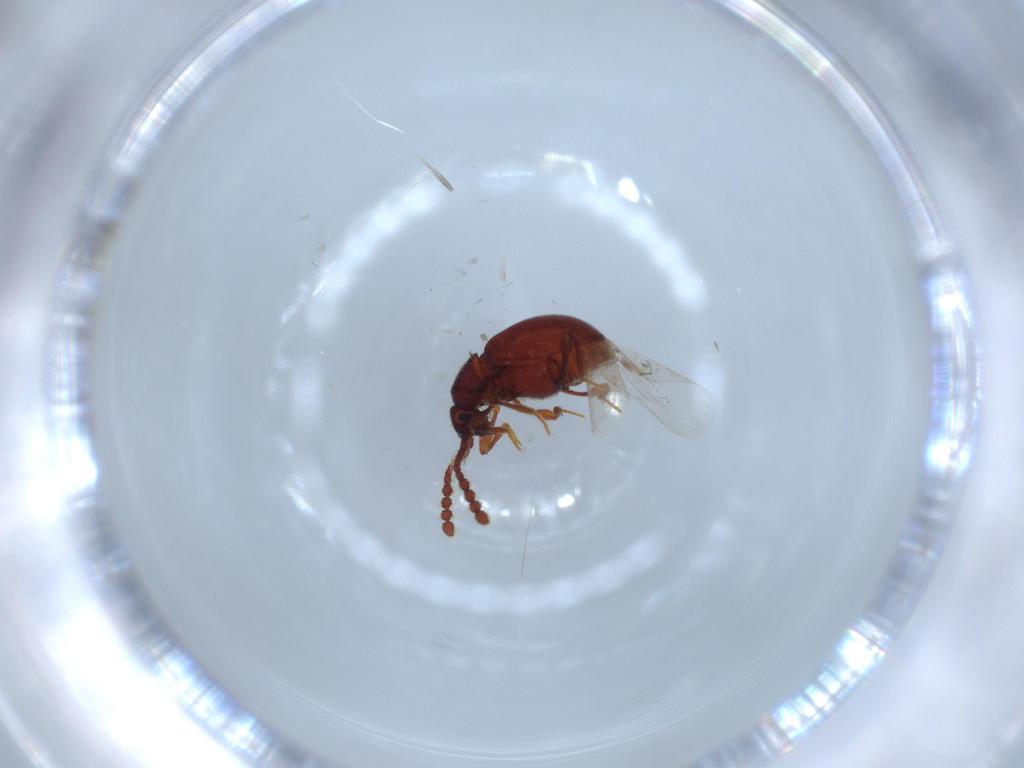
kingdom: Animalia
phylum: Arthropoda
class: Insecta
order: Coleoptera
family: Staphylinidae
